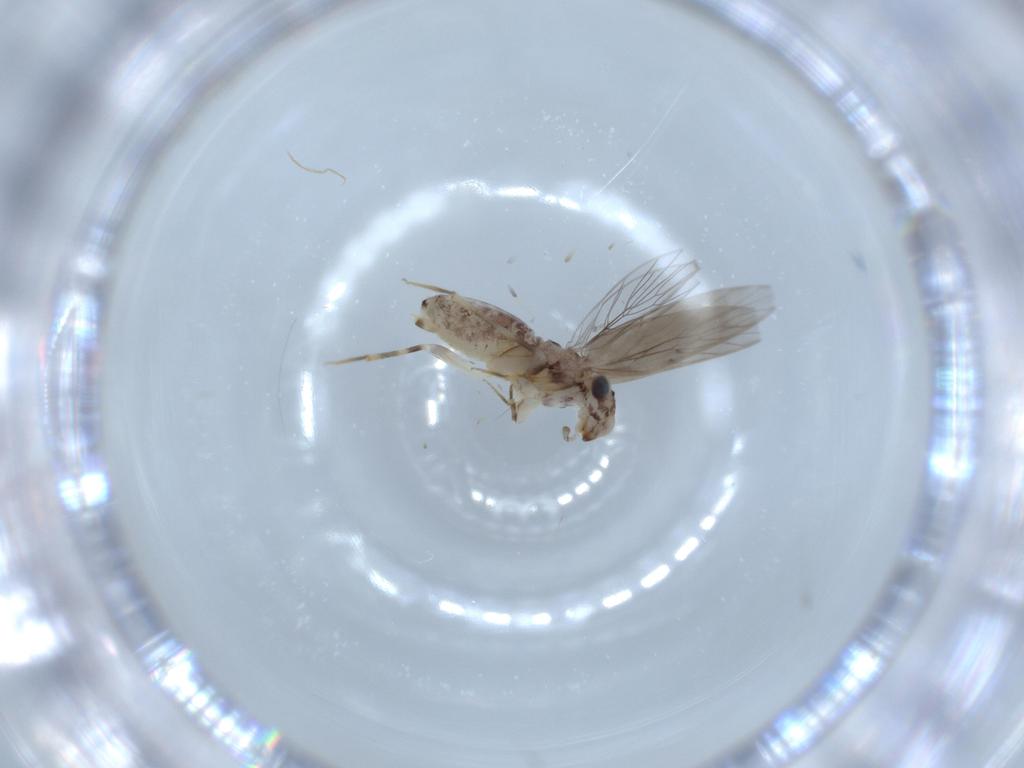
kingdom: Animalia
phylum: Arthropoda
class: Insecta
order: Psocodea
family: Lepidopsocidae
